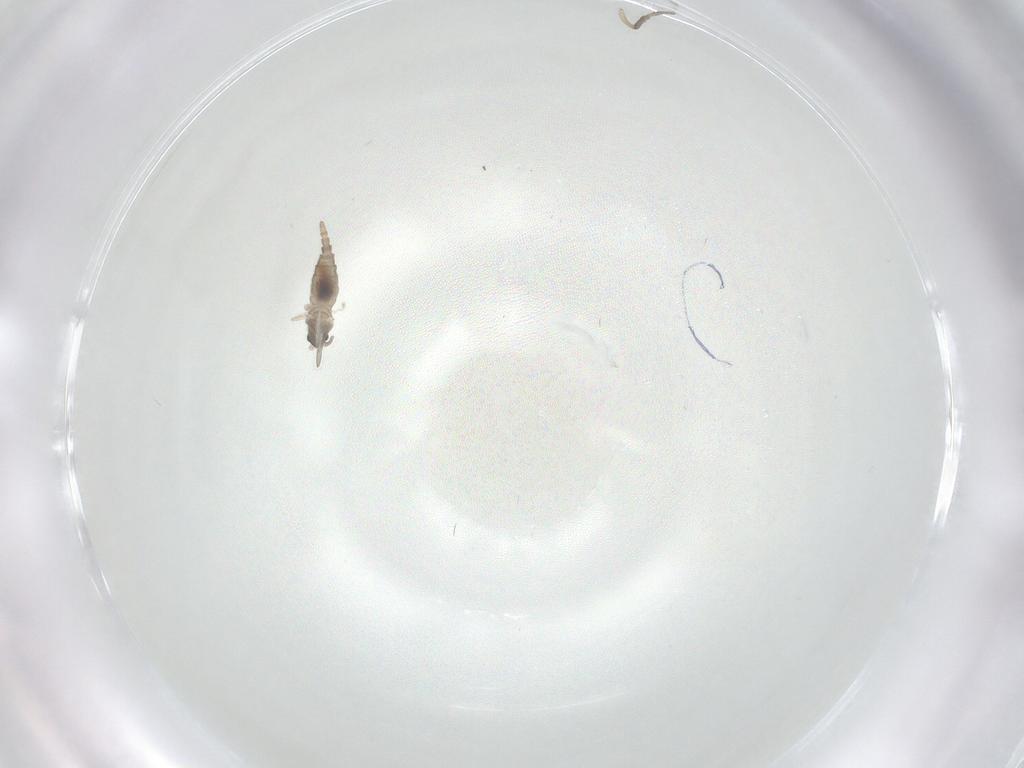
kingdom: Animalia
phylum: Arthropoda
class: Insecta
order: Diptera
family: Cecidomyiidae
